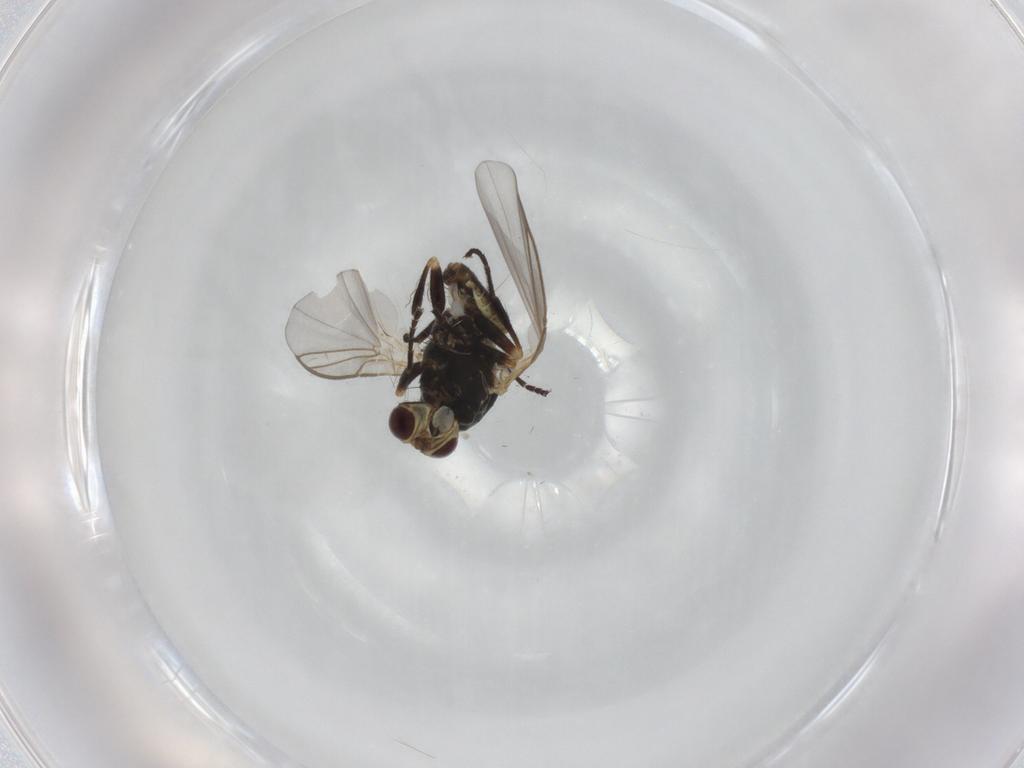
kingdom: Animalia
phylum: Arthropoda
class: Insecta
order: Diptera
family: Agromyzidae
